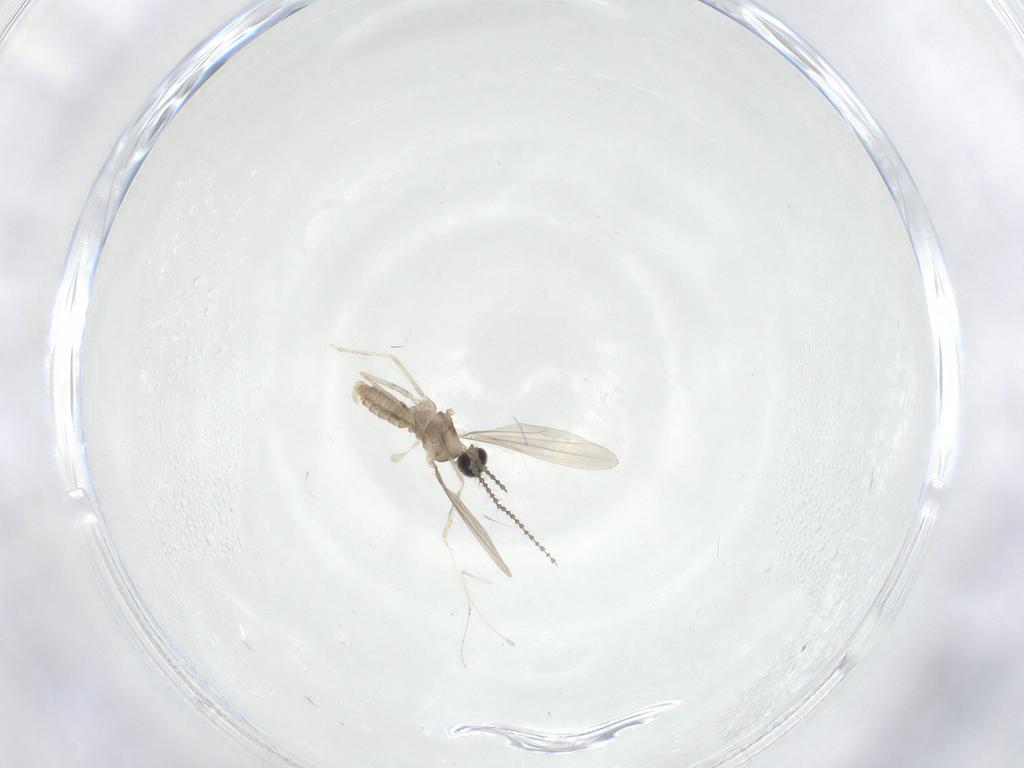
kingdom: Animalia
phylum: Arthropoda
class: Insecta
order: Diptera
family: Cecidomyiidae
